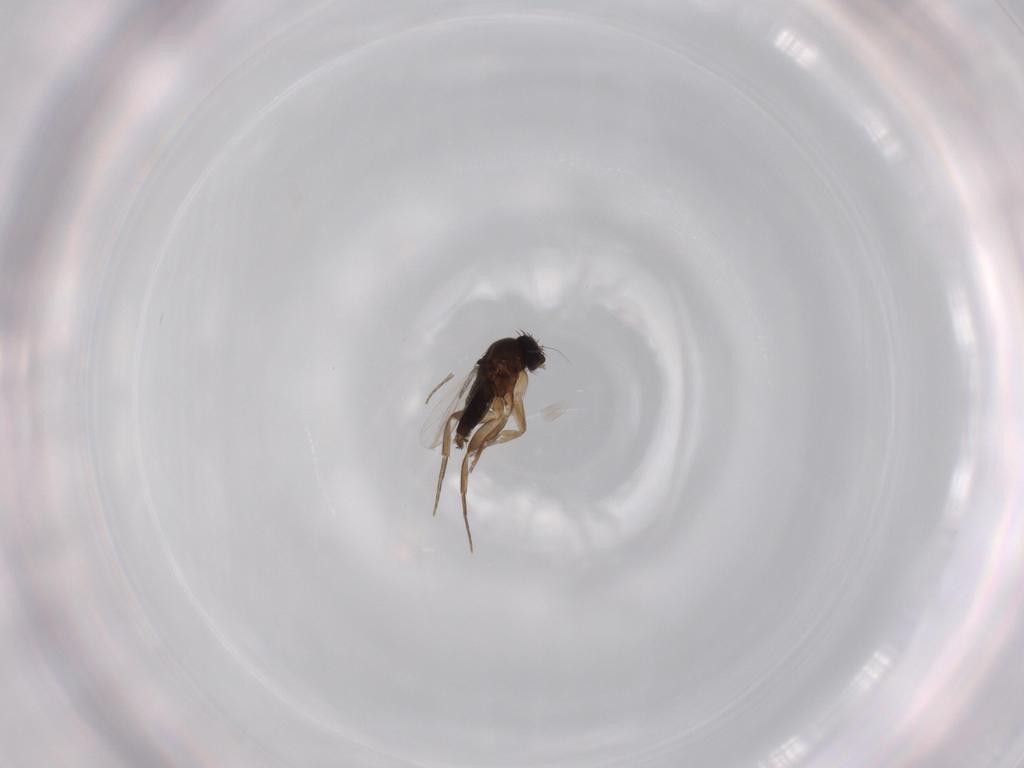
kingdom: Animalia
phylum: Arthropoda
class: Insecta
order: Diptera
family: Phoridae
